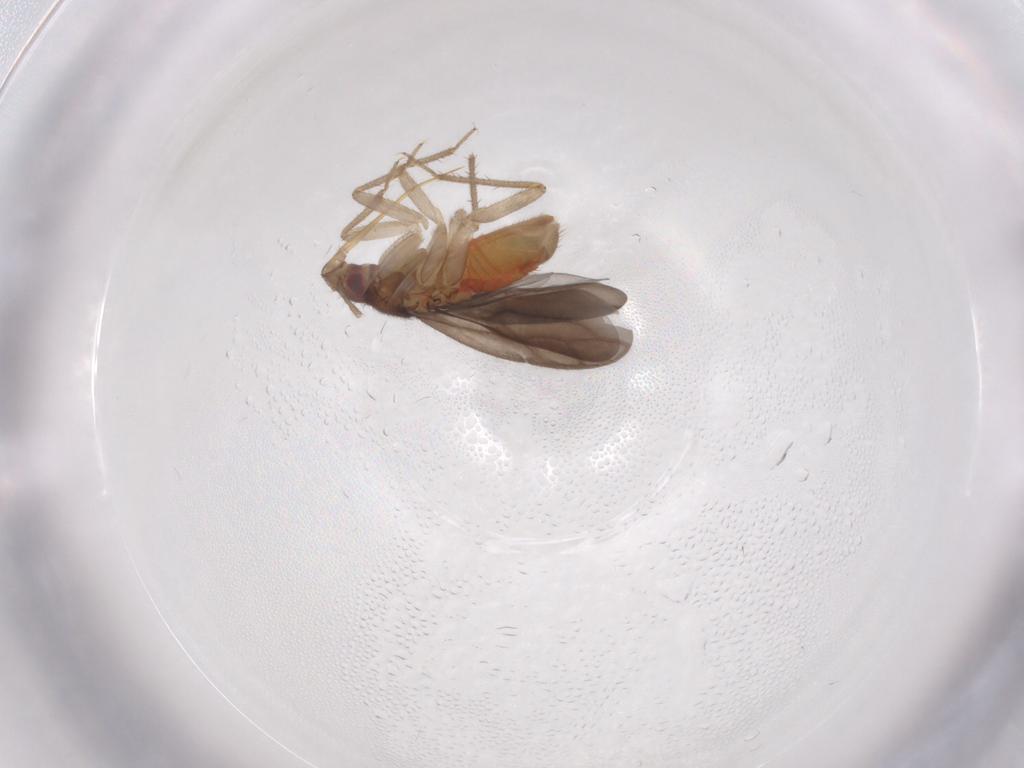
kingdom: Animalia
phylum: Arthropoda
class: Insecta
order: Hemiptera
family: Ceratocombidae
